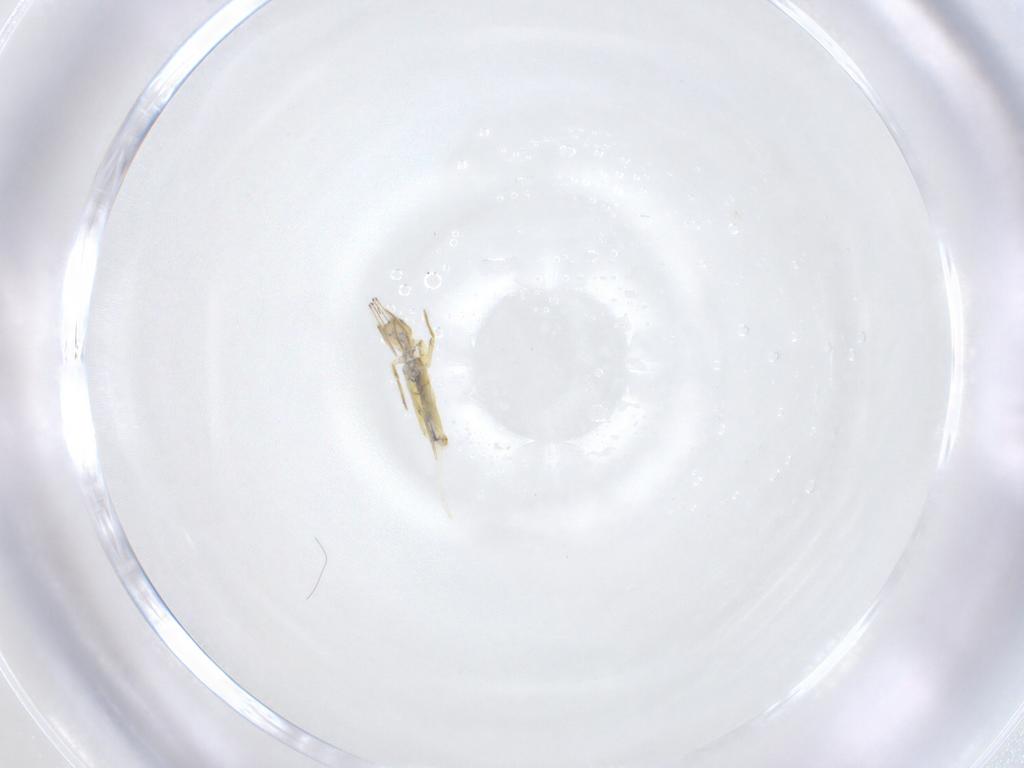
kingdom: Animalia
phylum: Arthropoda
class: Collembola
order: Entomobryomorpha
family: Entomobryidae
